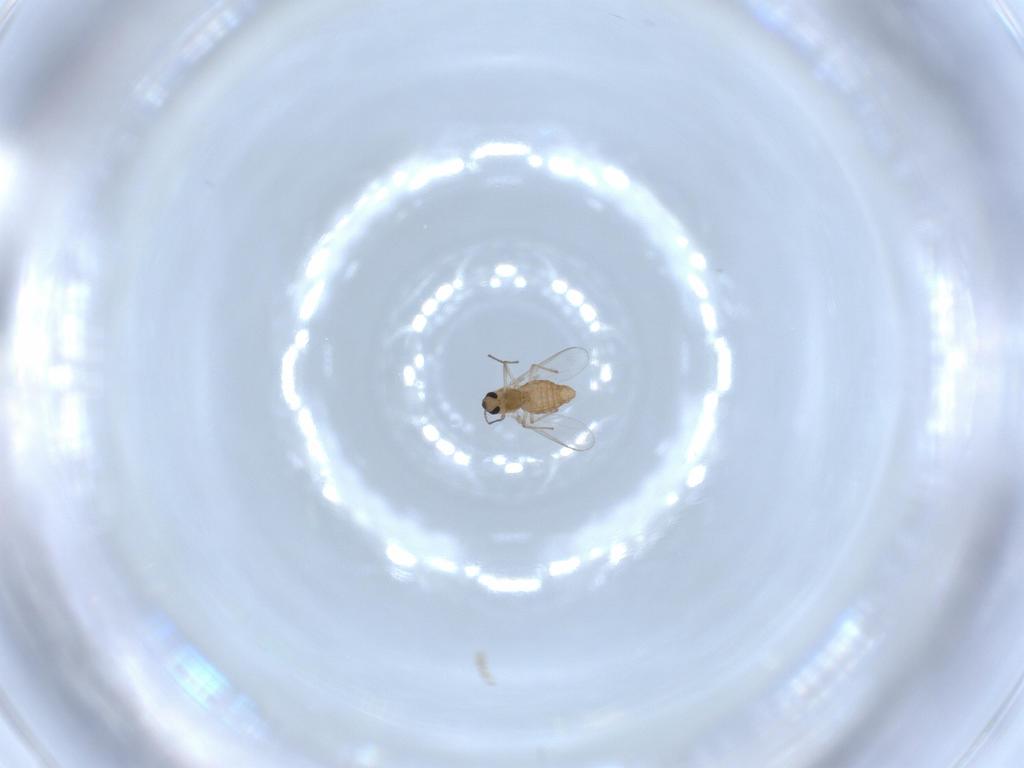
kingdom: Animalia
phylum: Arthropoda
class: Insecta
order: Diptera
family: Chironomidae
